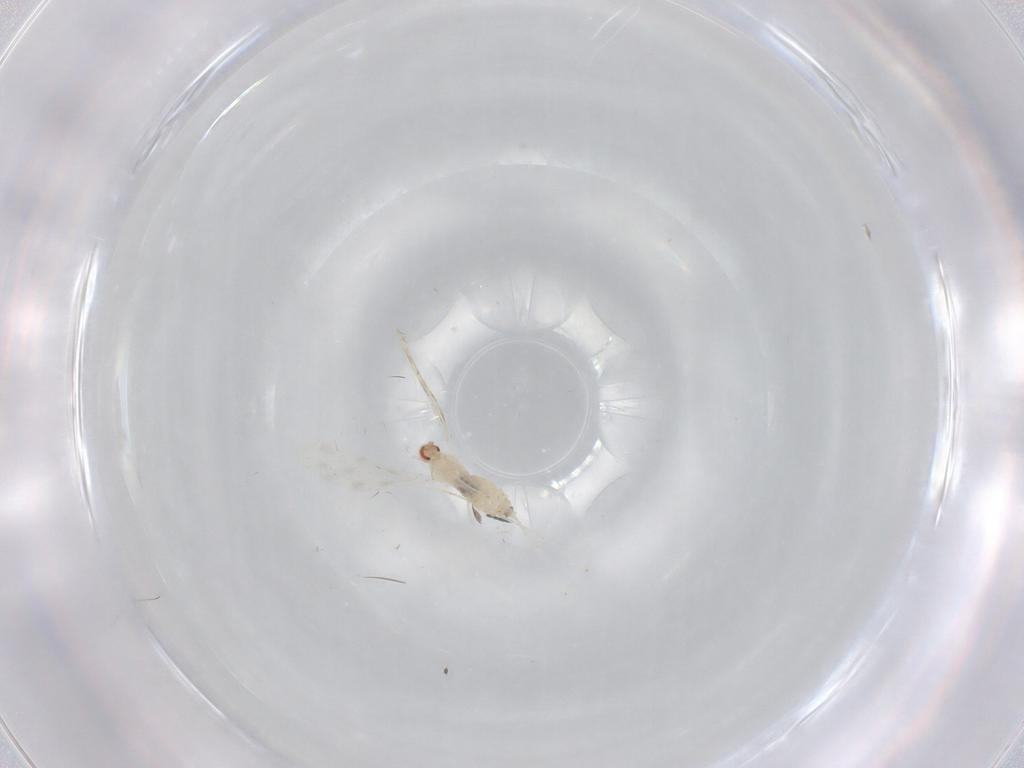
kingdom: Animalia
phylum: Arthropoda
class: Insecta
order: Diptera
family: Cecidomyiidae
